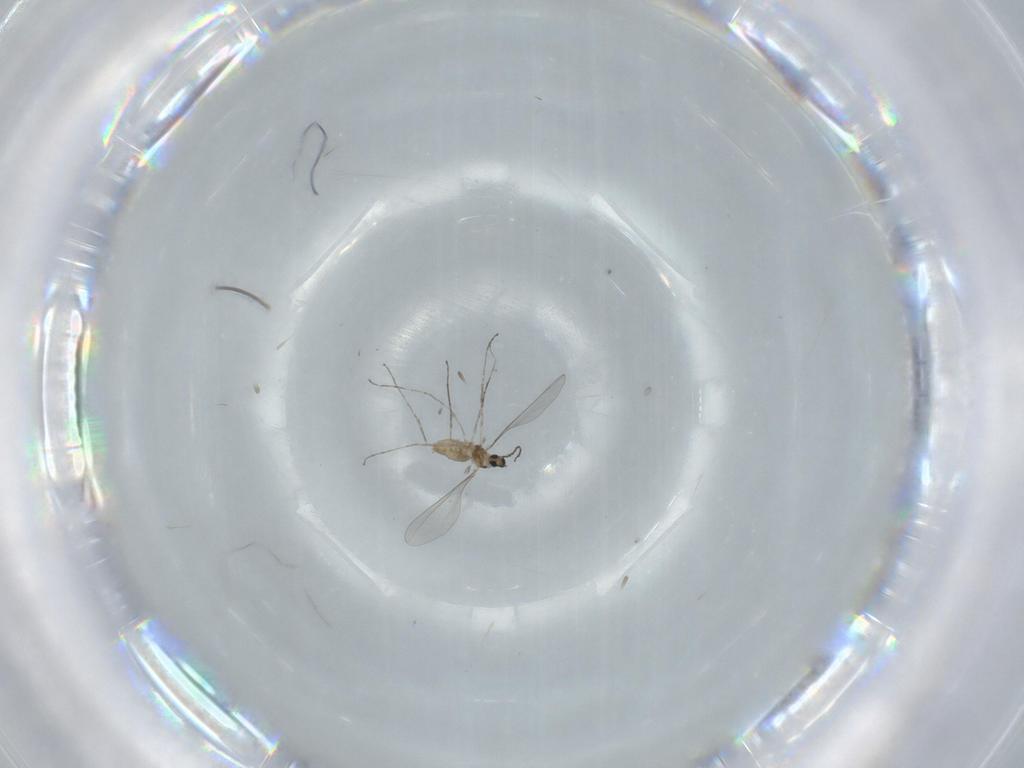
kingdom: Animalia
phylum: Arthropoda
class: Insecta
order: Diptera
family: Cecidomyiidae
